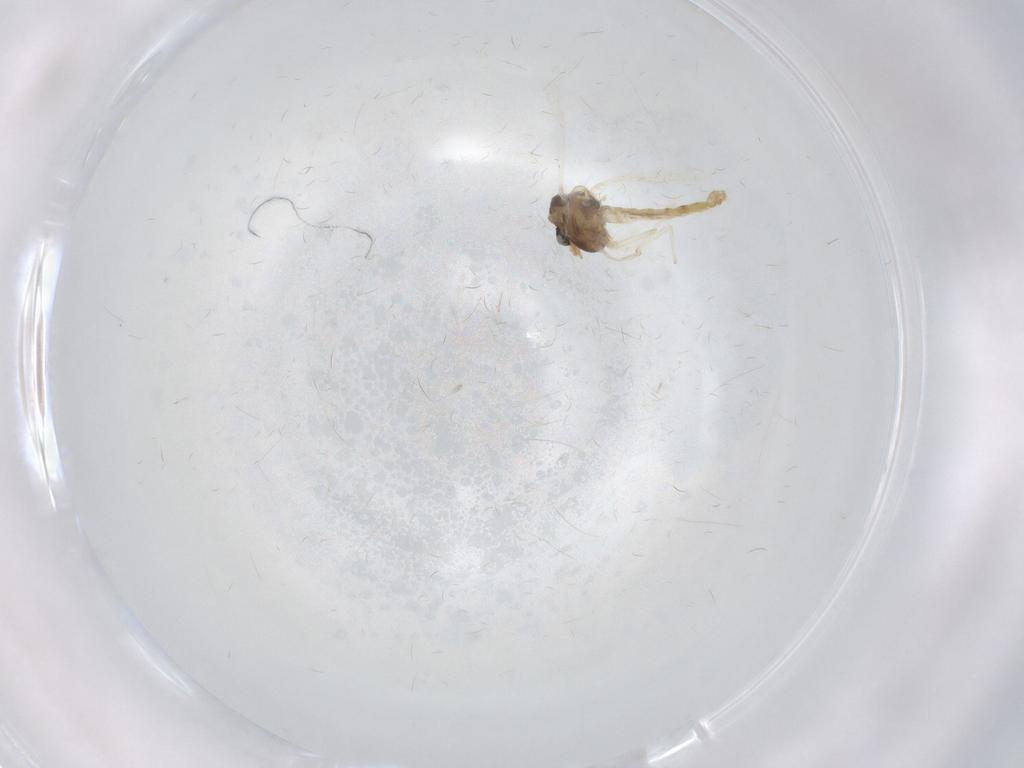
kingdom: Animalia
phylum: Arthropoda
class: Insecta
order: Diptera
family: Chironomidae
